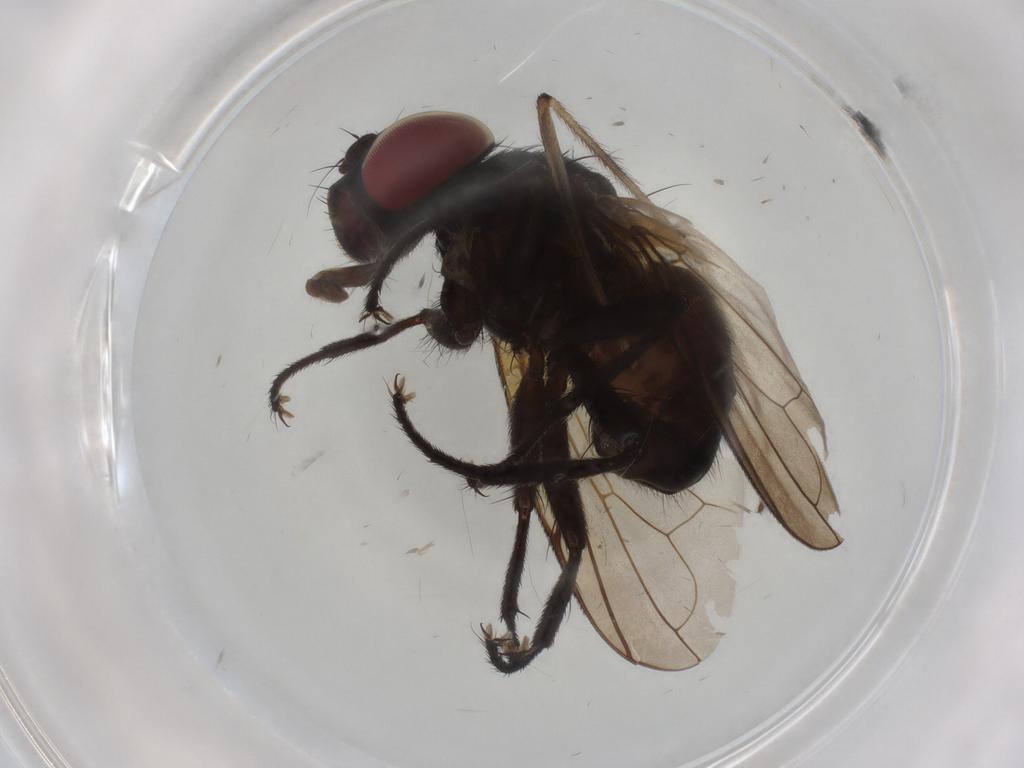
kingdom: Animalia
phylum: Arthropoda
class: Insecta
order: Diptera
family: Tachinidae
